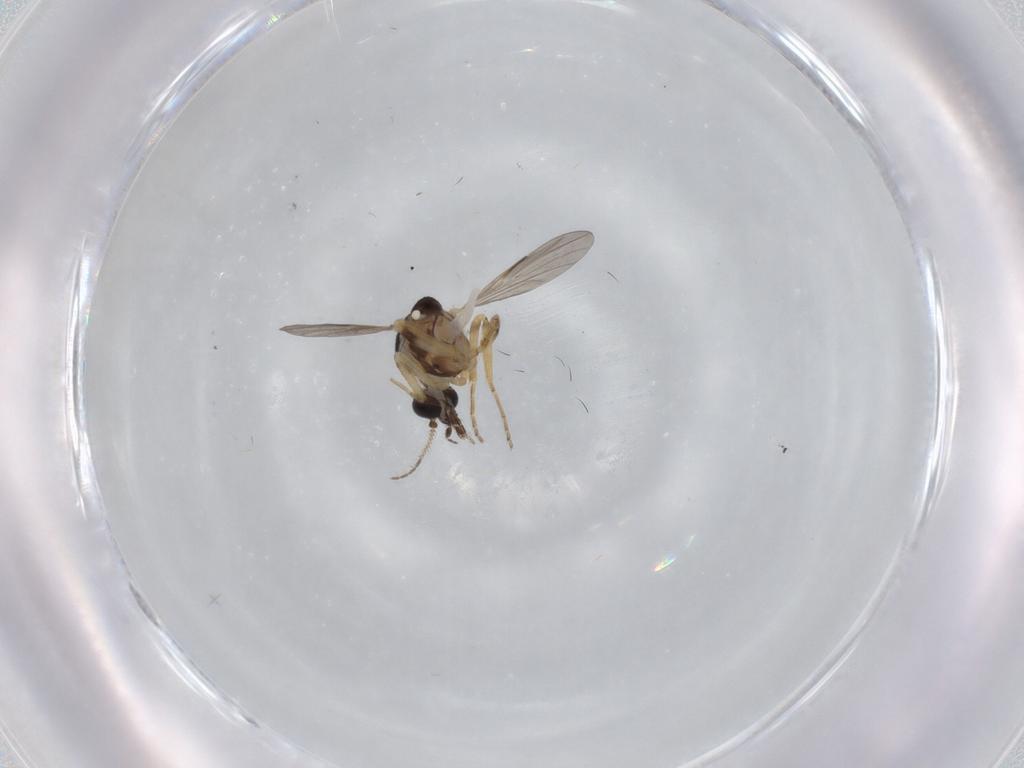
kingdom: Animalia
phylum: Arthropoda
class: Insecta
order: Diptera
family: Ceratopogonidae
